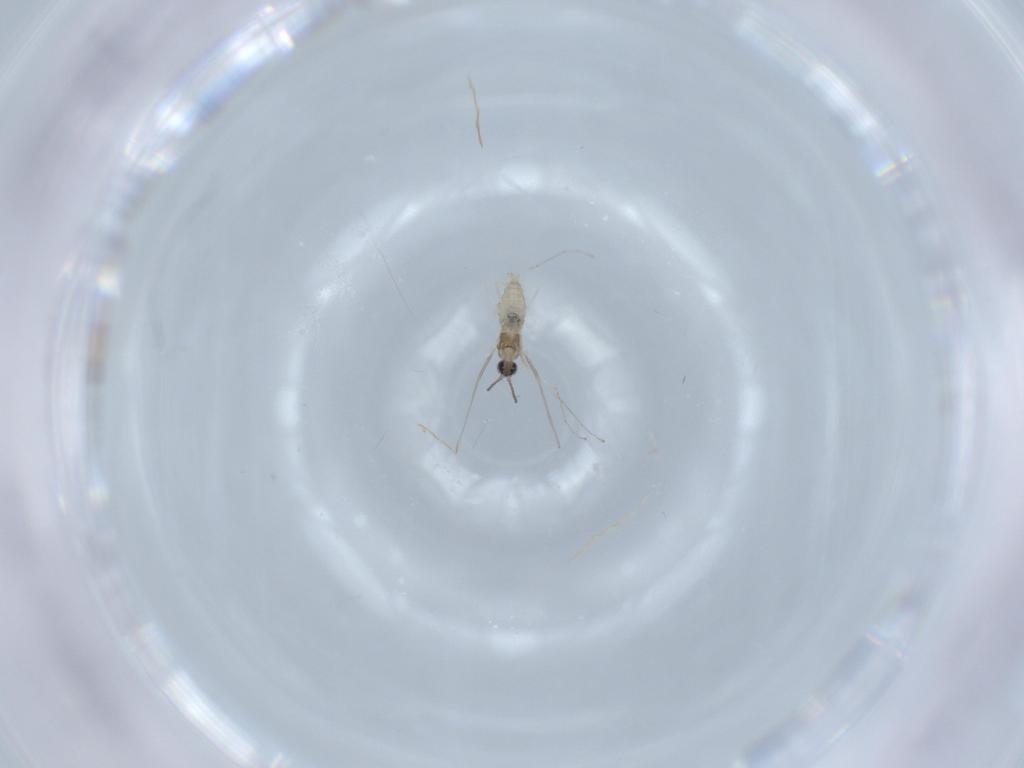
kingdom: Animalia
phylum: Arthropoda
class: Insecta
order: Diptera
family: Cecidomyiidae
